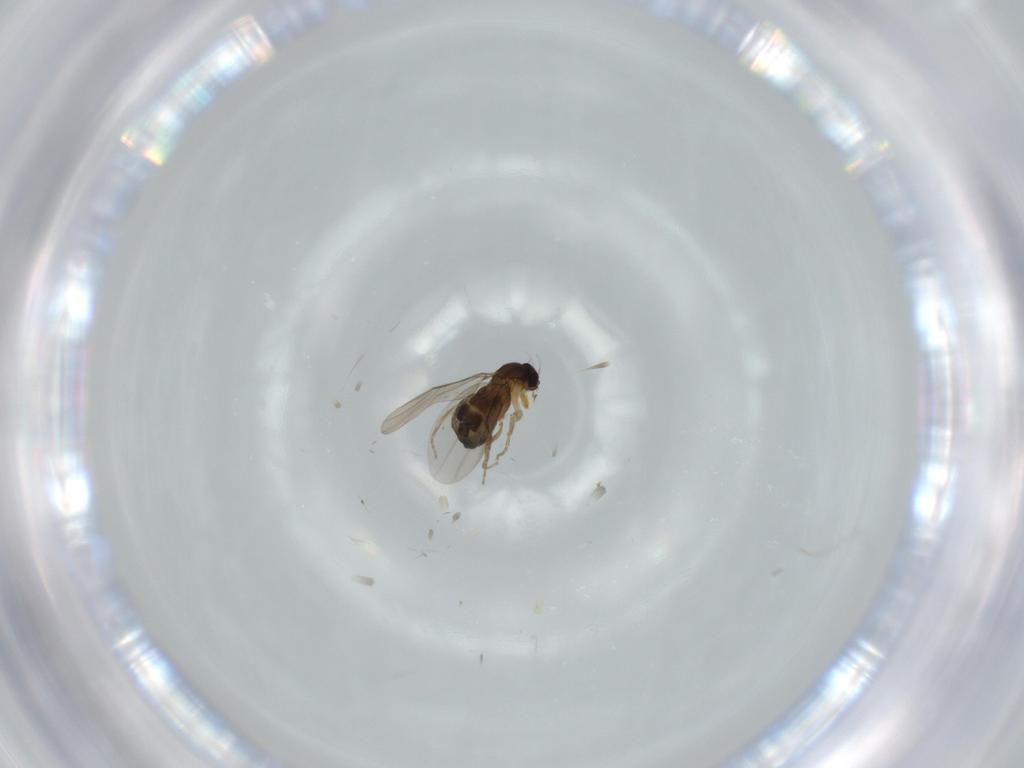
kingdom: Animalia
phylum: Arthropoda
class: Insecta
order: Diptera
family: Phoridae
